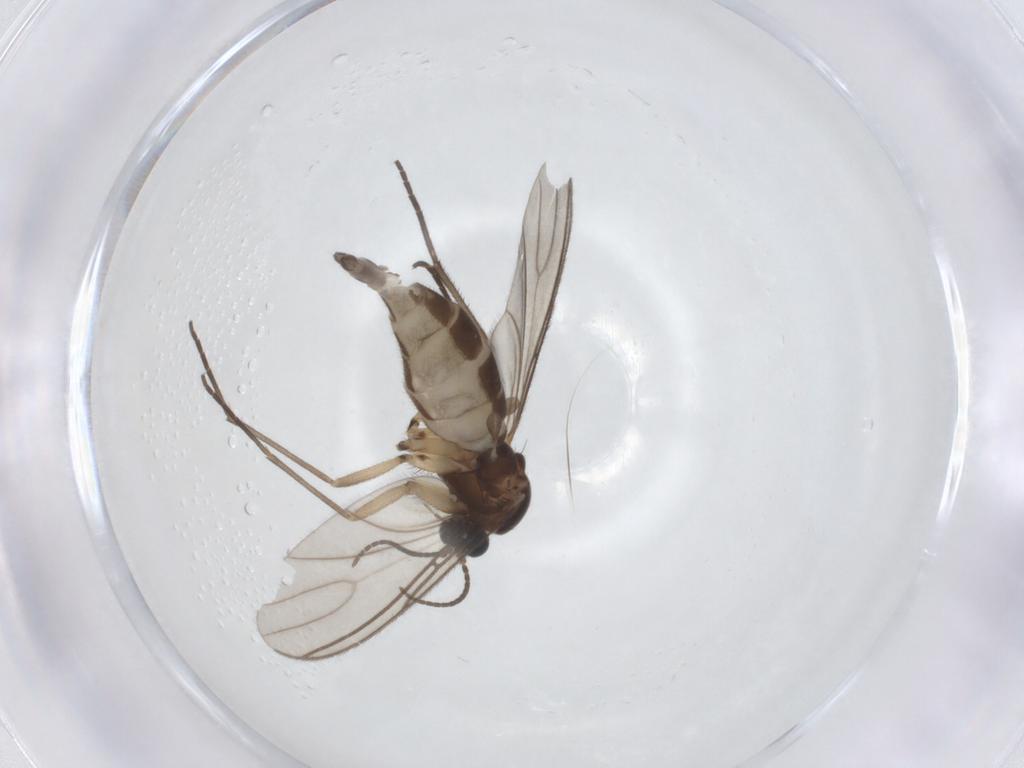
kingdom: Animalia
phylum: Arthropoda
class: Insecta
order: Diptera
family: Sciaridae
